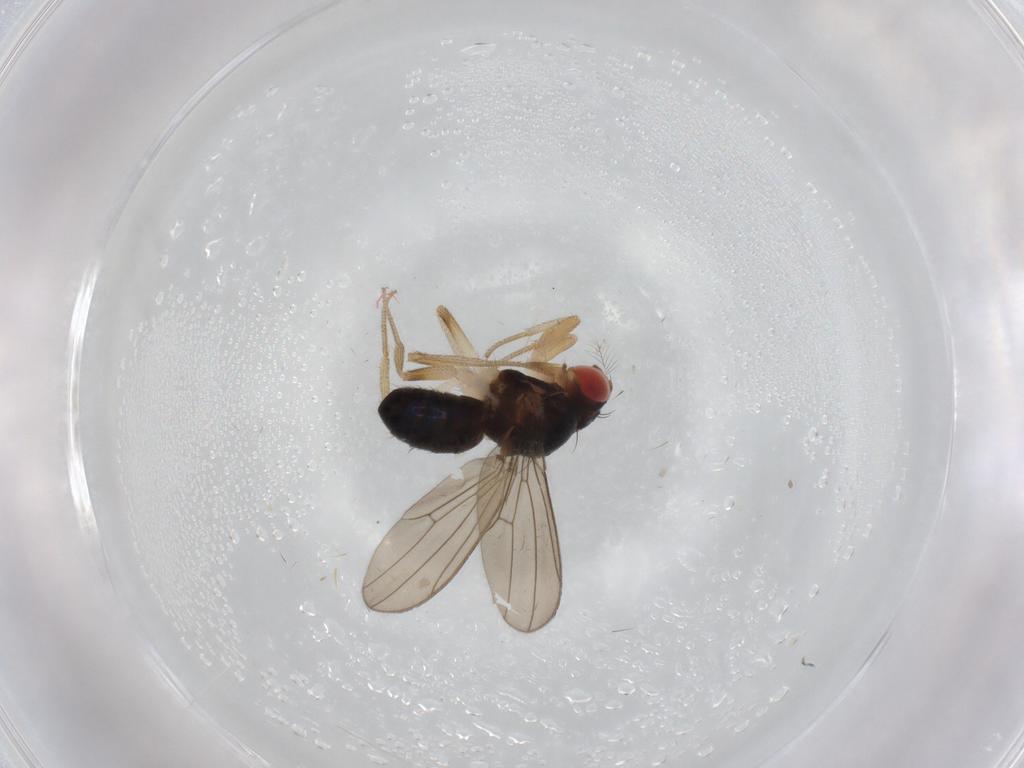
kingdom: Animalia
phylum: Arthropoda
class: Insecta
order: Diptera
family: Drosophilidae
